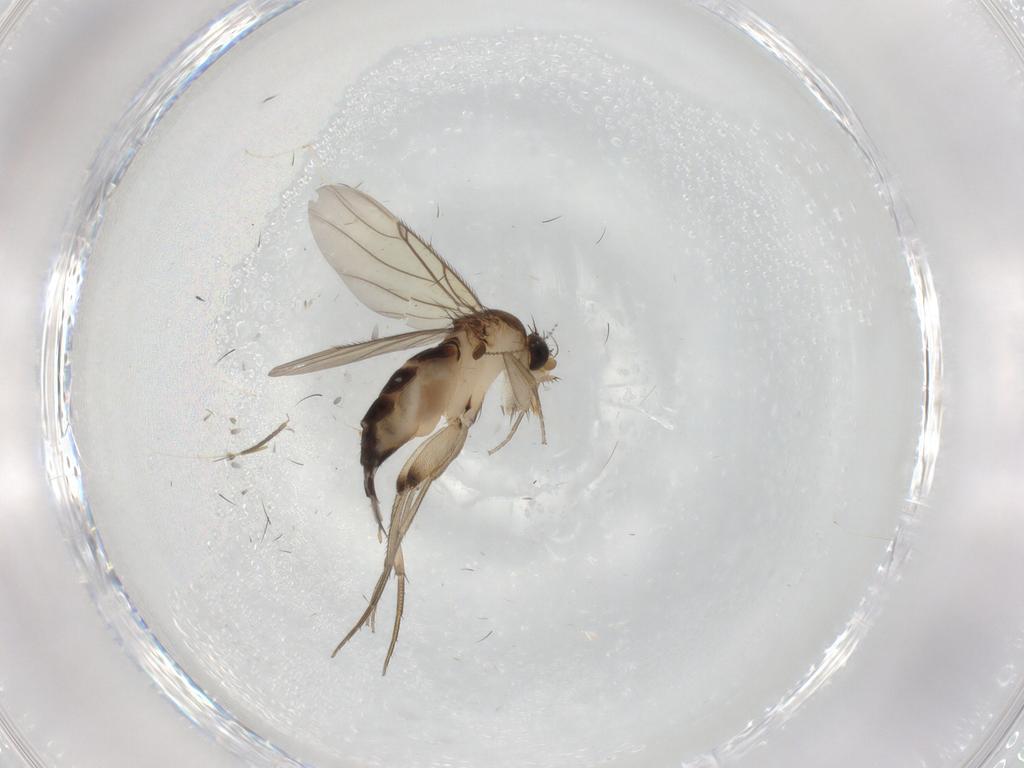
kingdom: Animalia
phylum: Arthropoda
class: Insecta
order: Diptera
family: Phoridae
